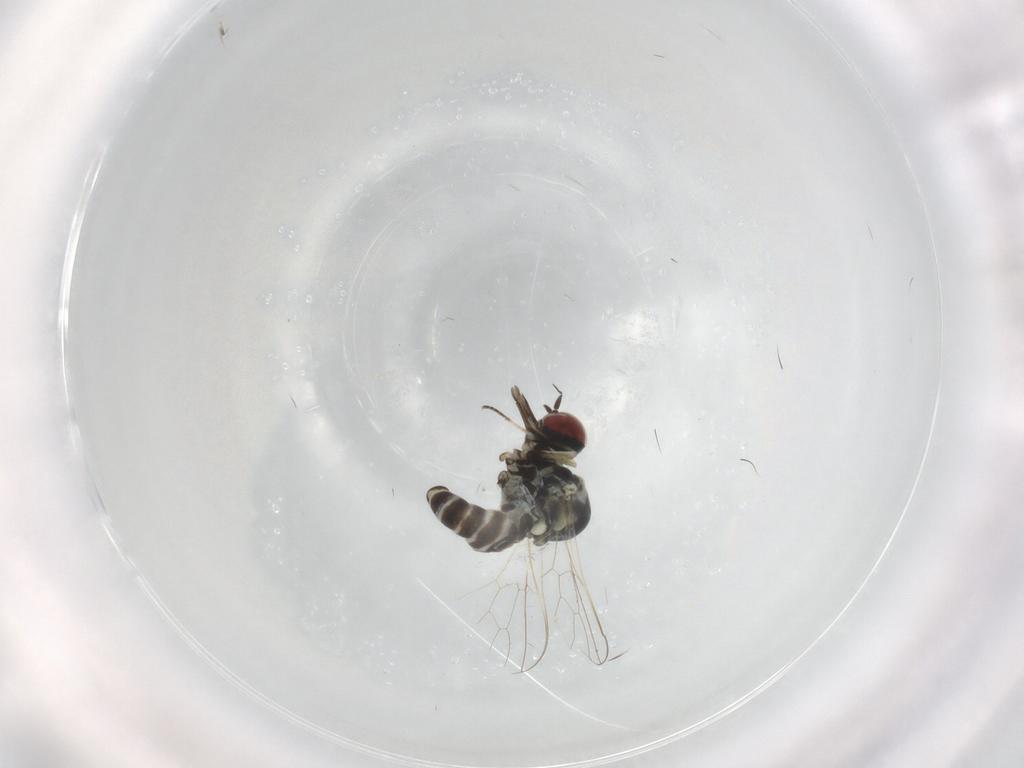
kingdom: Animalia
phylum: Arthropoda
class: Insecta
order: Diptera
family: Bombyliidae
